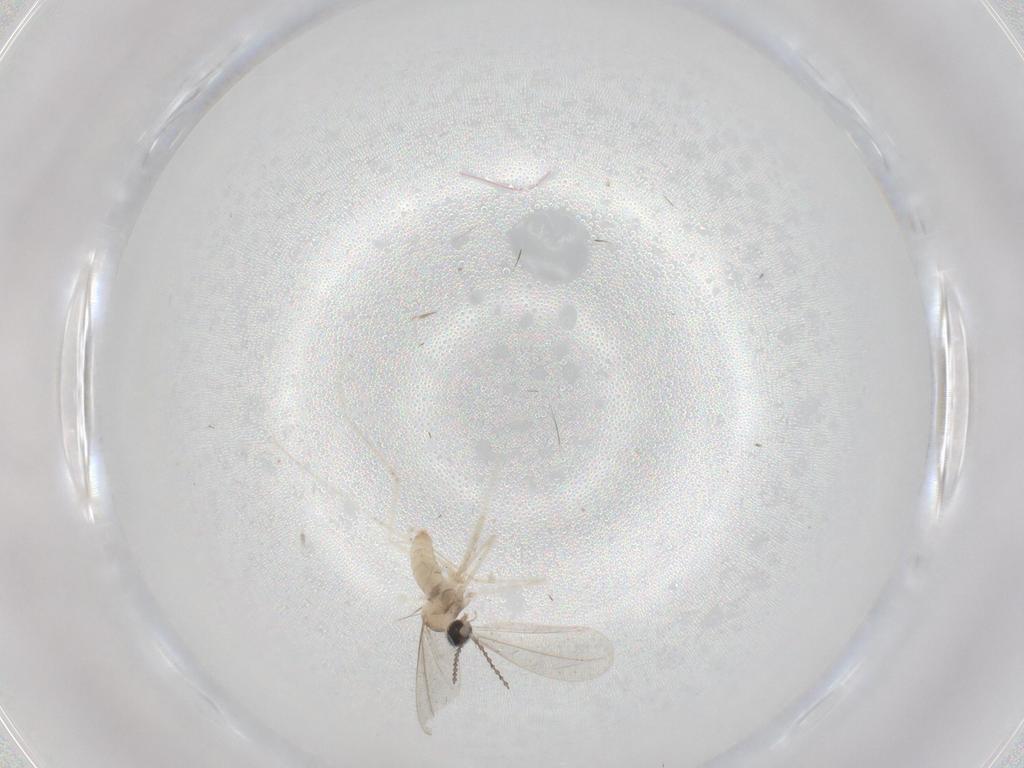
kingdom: Animalia
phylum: Arthropoda
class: Insecta
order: Diptera
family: Cecidomyiidae
